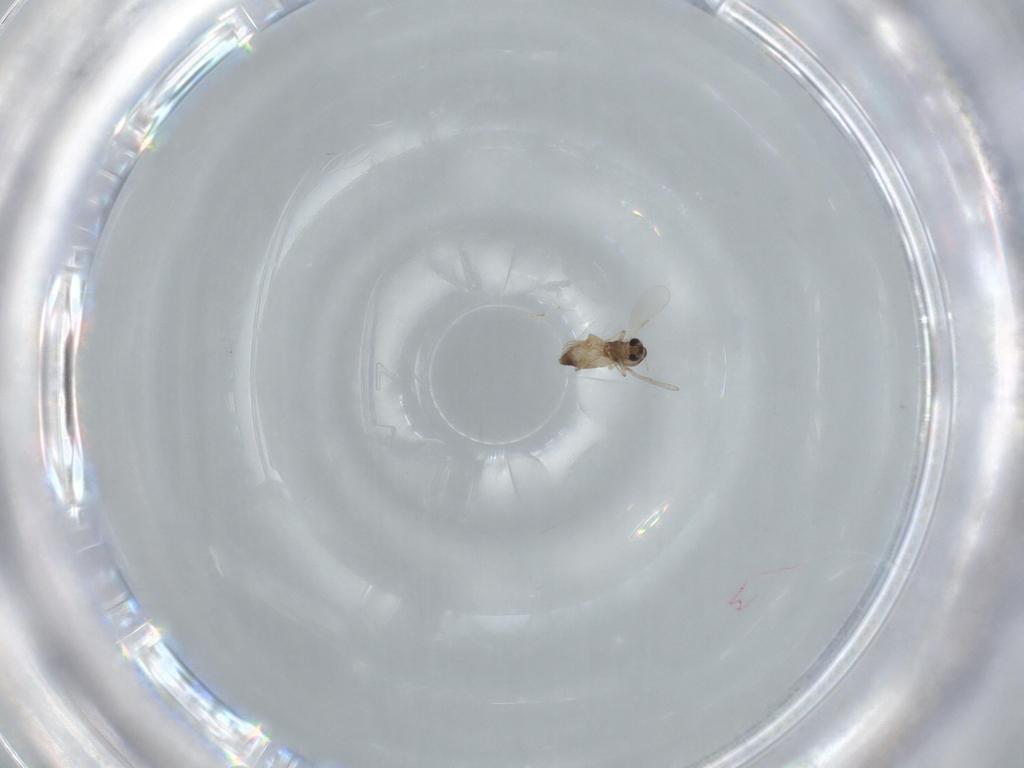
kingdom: Animalia
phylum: Arthropoda
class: Insecta
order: Diptera
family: Chironomidae
